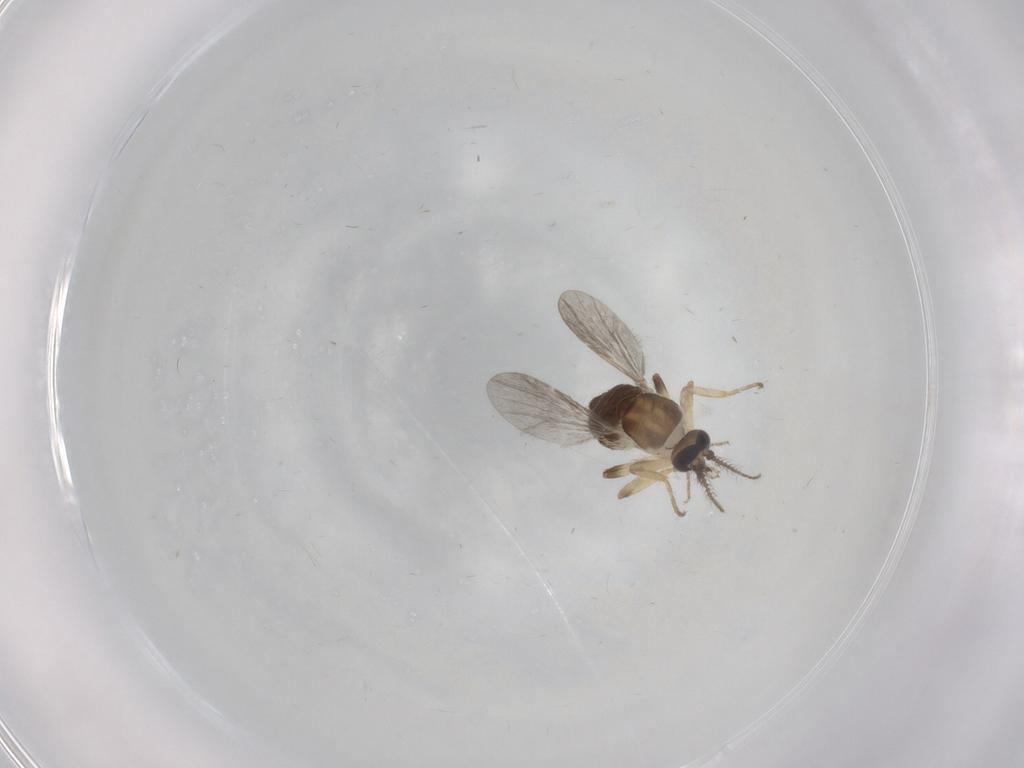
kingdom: Animalia
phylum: Arthropoda
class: Insecta
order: Diptera
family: Ceratopogonidae
